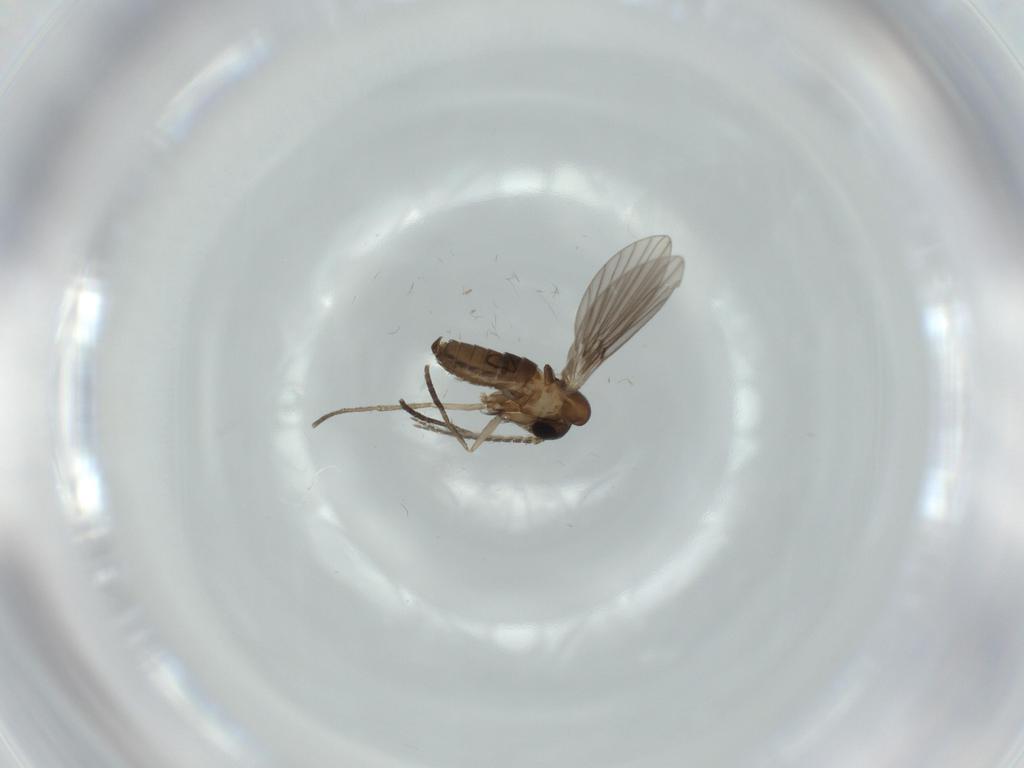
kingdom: Animalia
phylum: Arthropoda
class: Insecta
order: Diptera
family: Psychodidae
